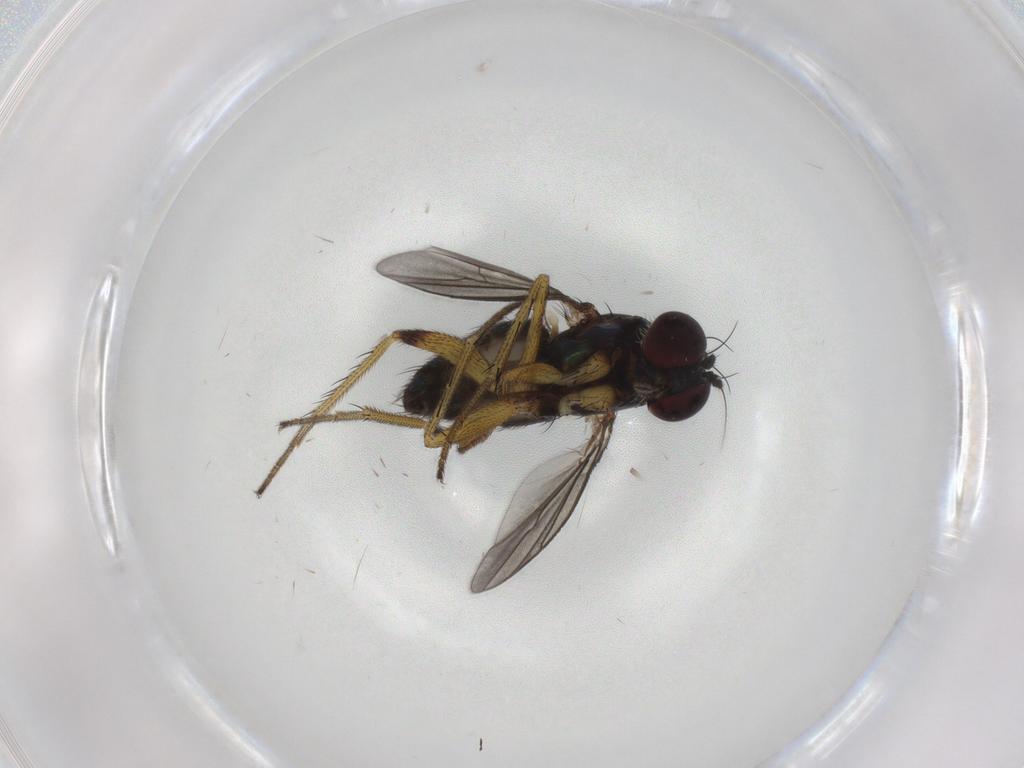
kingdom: Animalia
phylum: Arthropoda
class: Insecta
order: Diptera
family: Dolichopodidae
